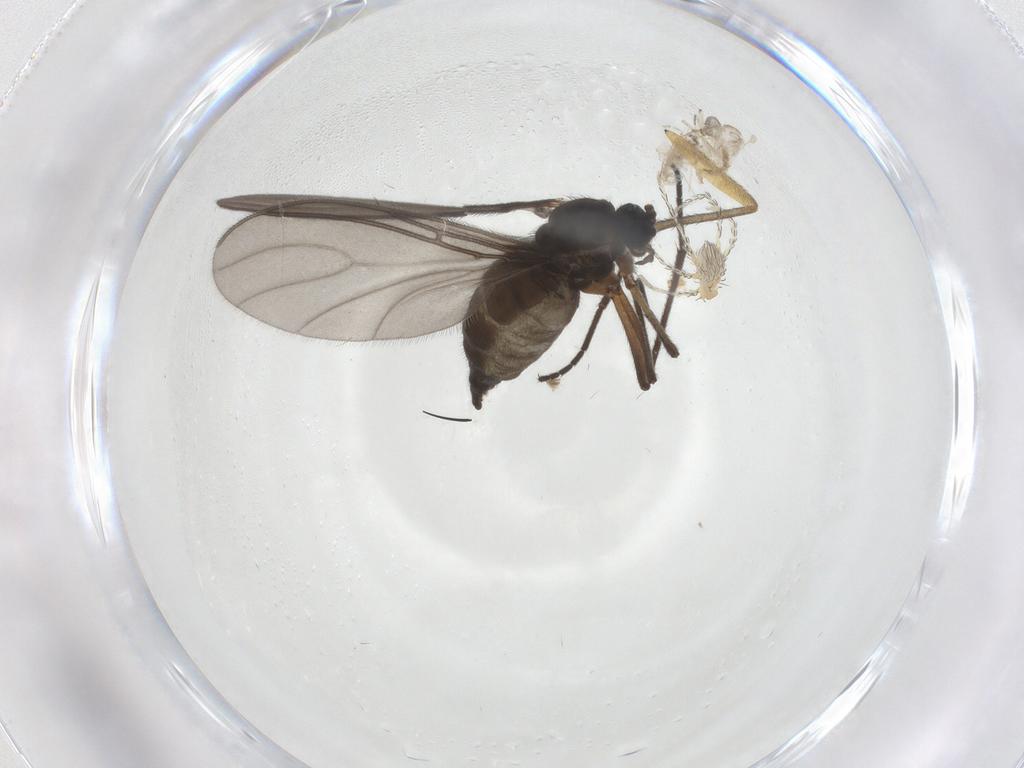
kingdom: Animalia
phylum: Arthropoda
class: Insecta
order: Diptera
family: Sciaridae
